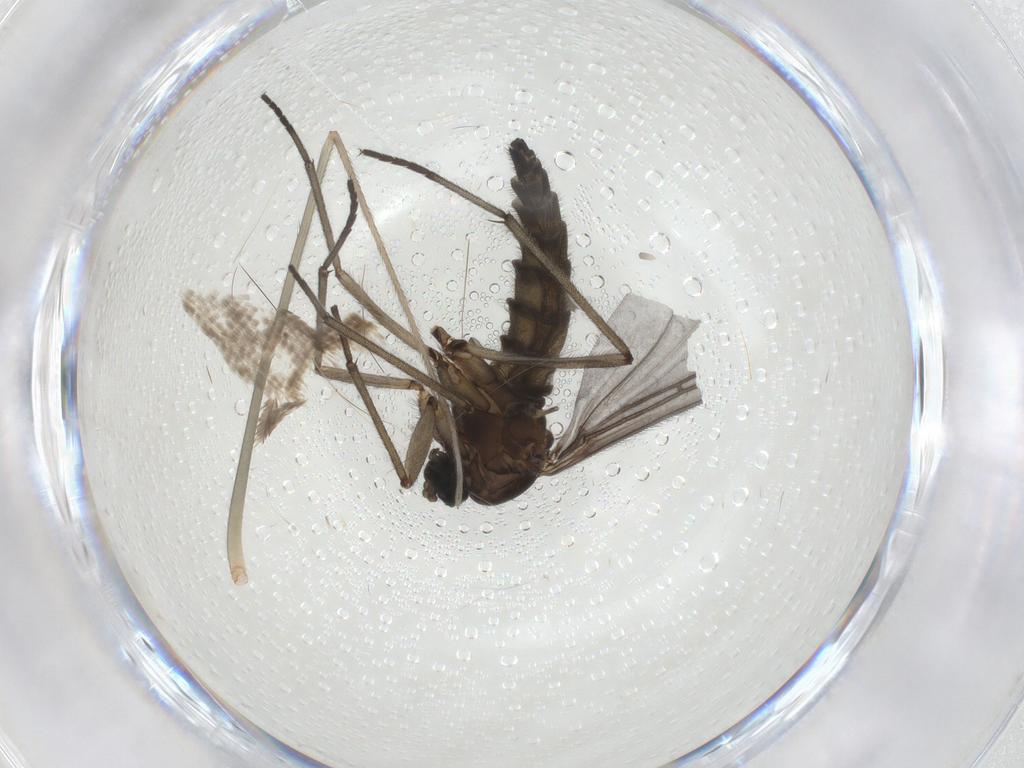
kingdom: Animalia
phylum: Arthropoda
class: Insecta
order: Diptera
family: Sciaridae
